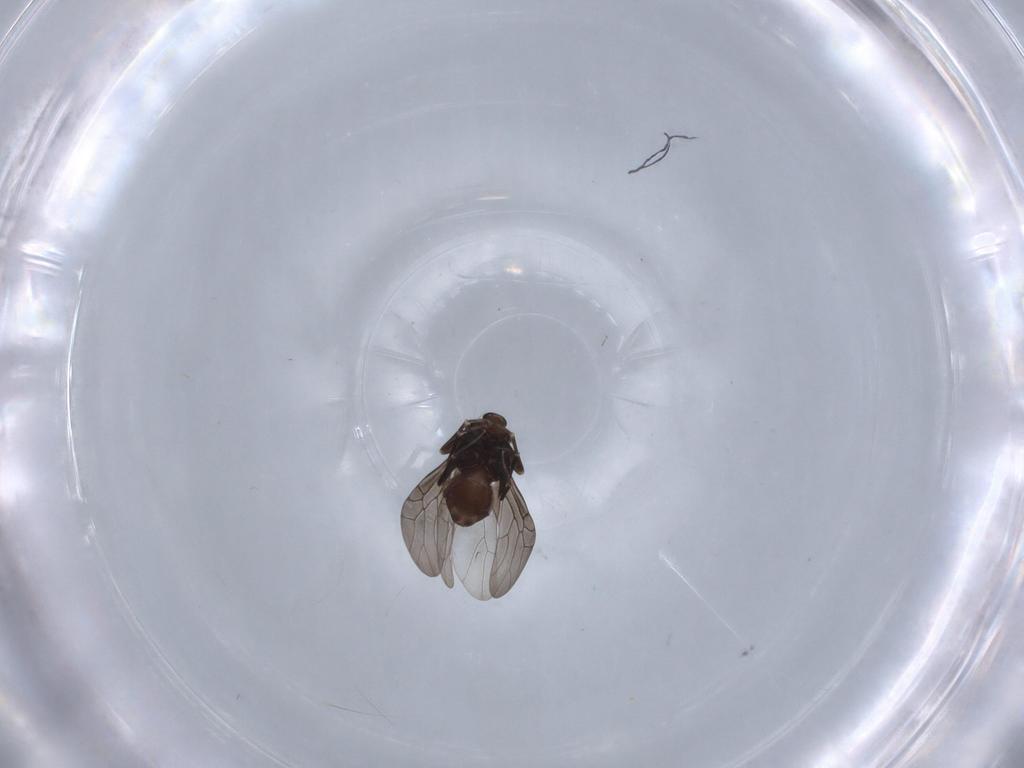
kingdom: Animalia
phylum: Arthropoda
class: Insecta
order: Psocodea
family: Lepidopsocidae
